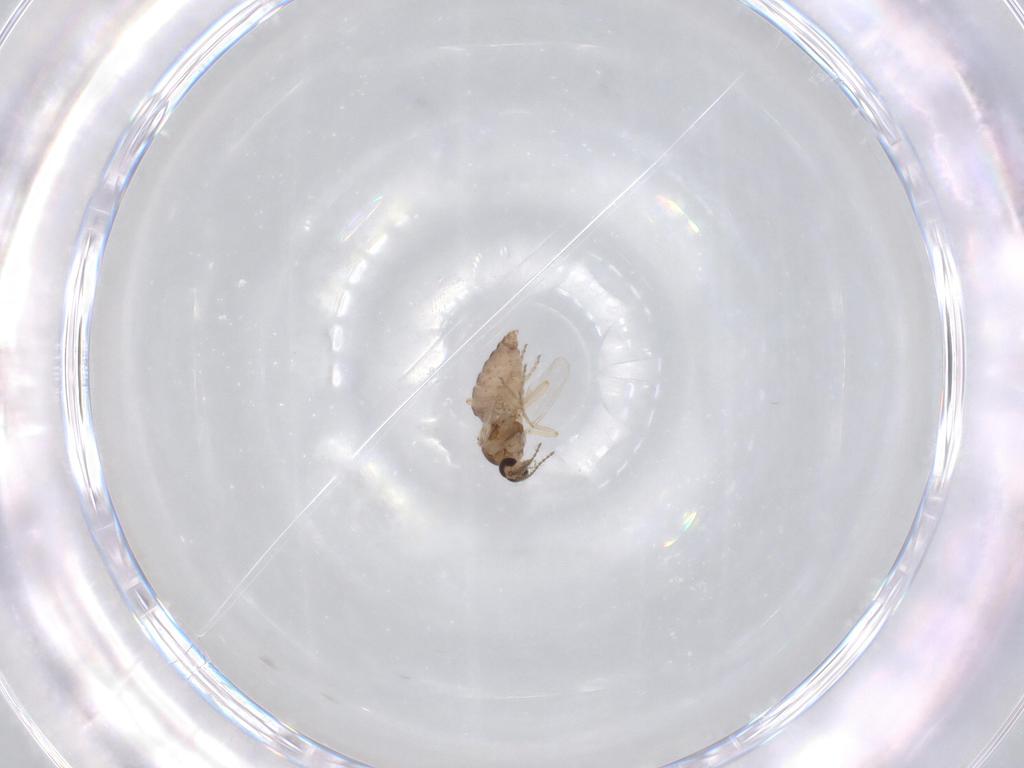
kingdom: Animalia
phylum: Arthropoda
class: Insecta
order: Diptera
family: Ceratopogonidae
